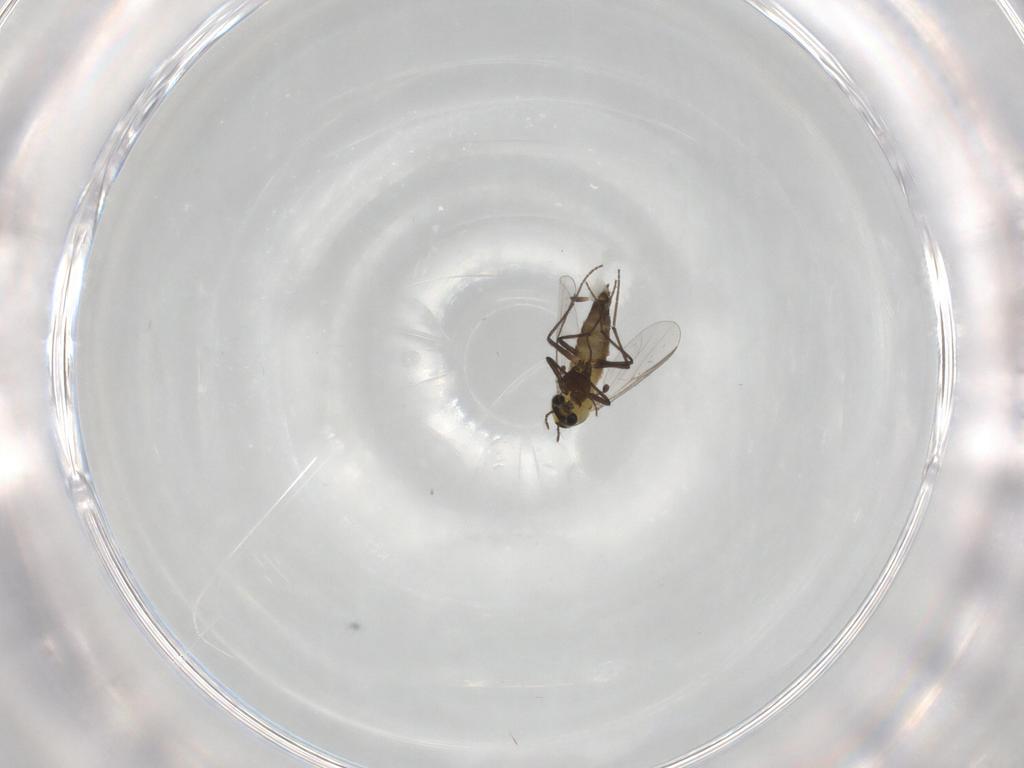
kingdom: Animalia
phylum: Arthropoda
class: Insecta
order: Diptera
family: Chironomidae
